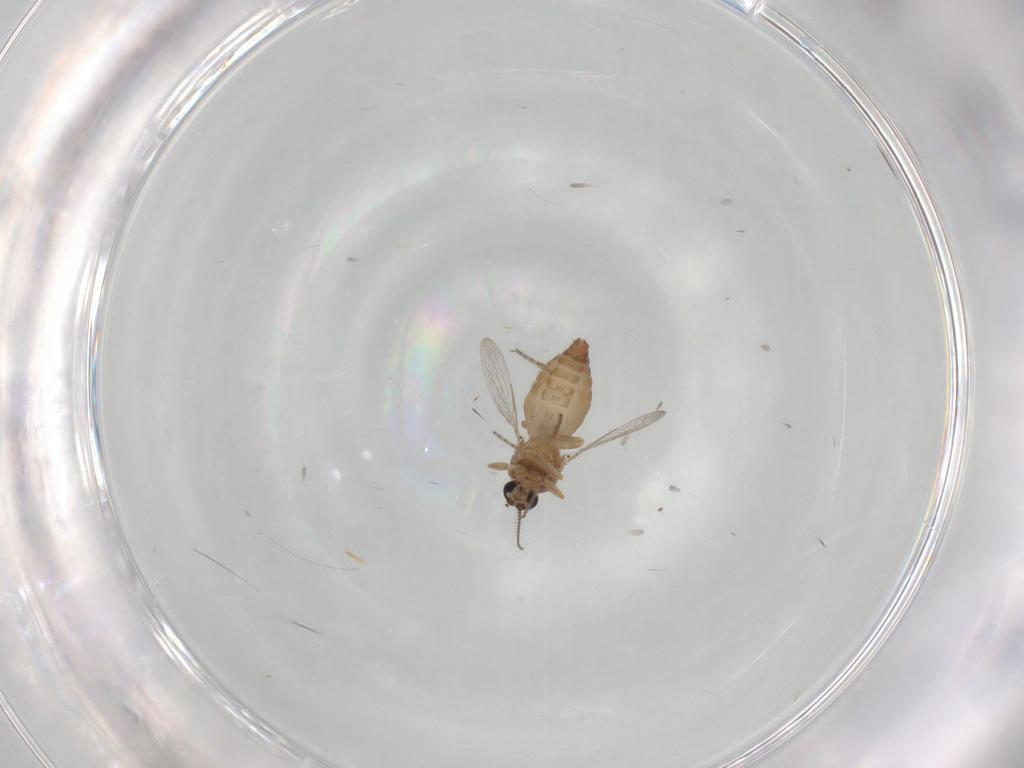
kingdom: Animalia
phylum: Arthropoda
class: Insecta
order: Diptera
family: Ceratopogonidae
